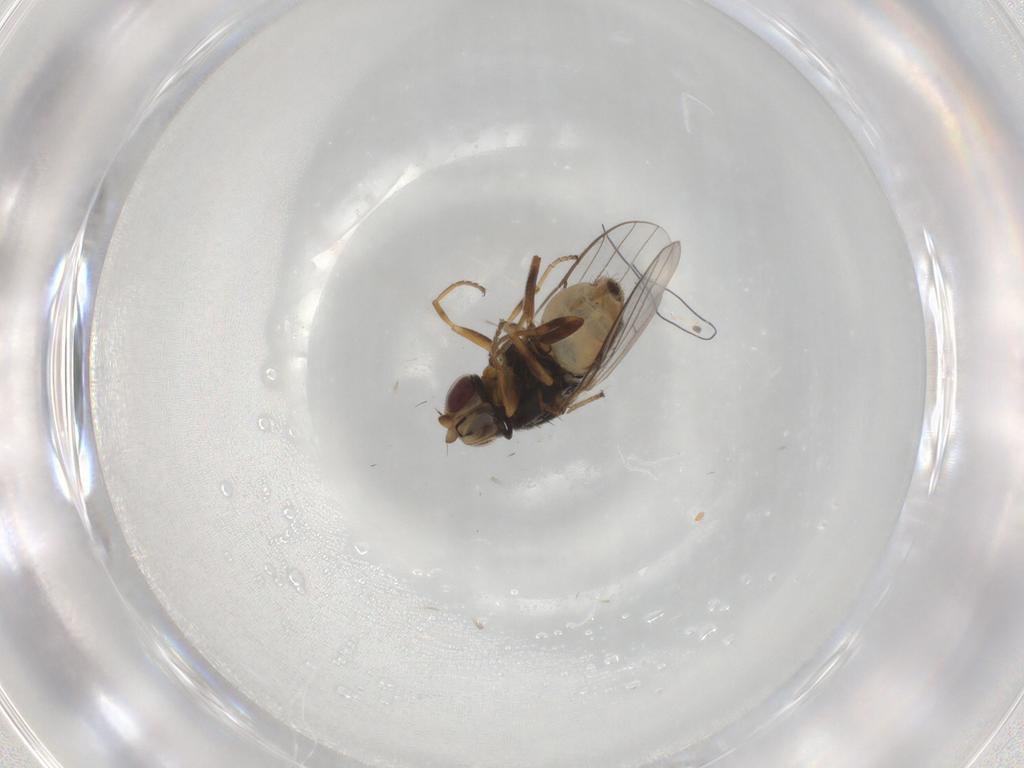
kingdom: Animalia
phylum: Arthropoda
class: Insecta
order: Diptera
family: Chloropidae
